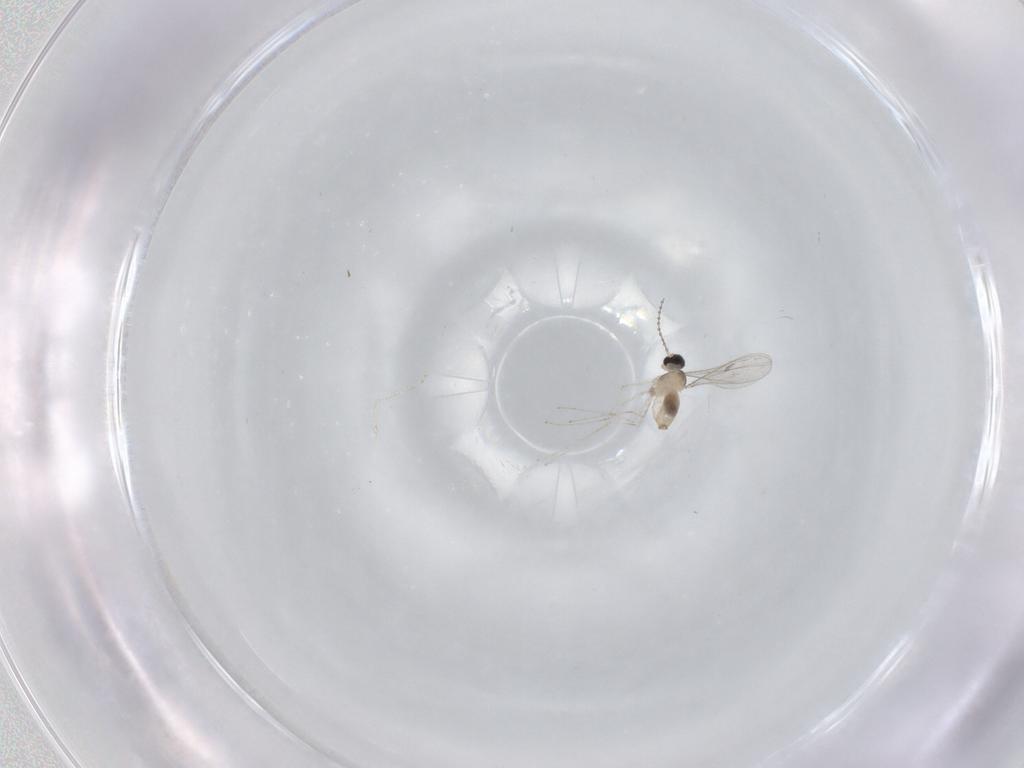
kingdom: Animalia
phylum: Arthropoda
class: Insecta
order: Diptera
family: Cecidomyiidae
